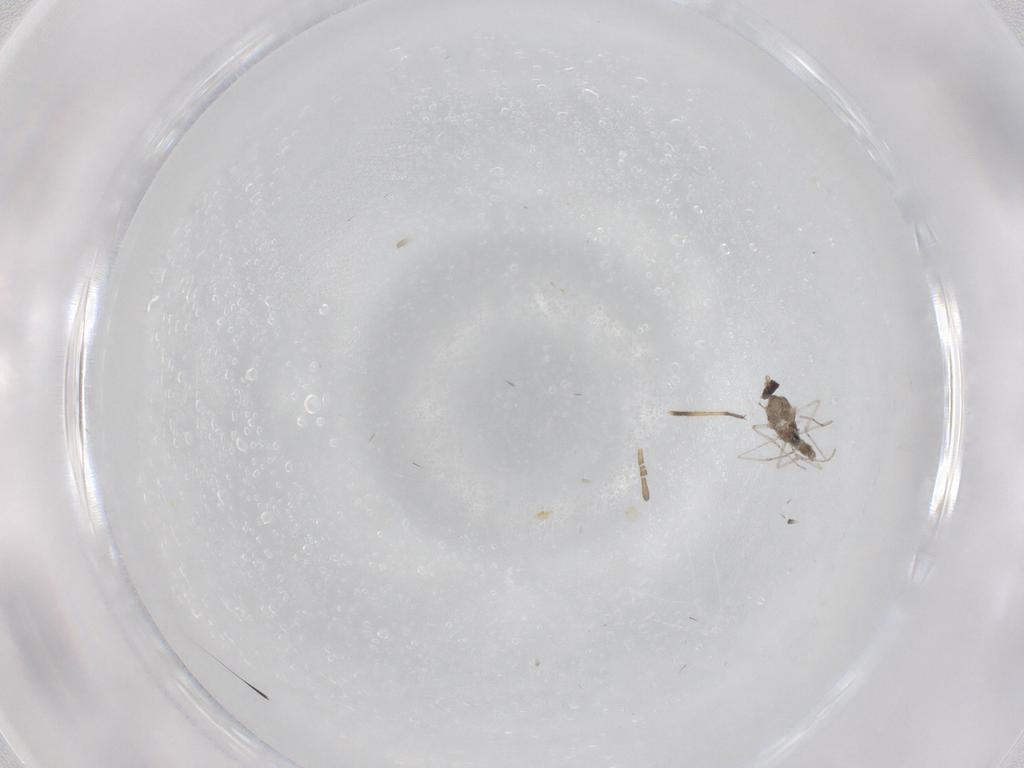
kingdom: Animalia
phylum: Arthropoda
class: Insecta
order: Diptera
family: Cecidomyiidae
